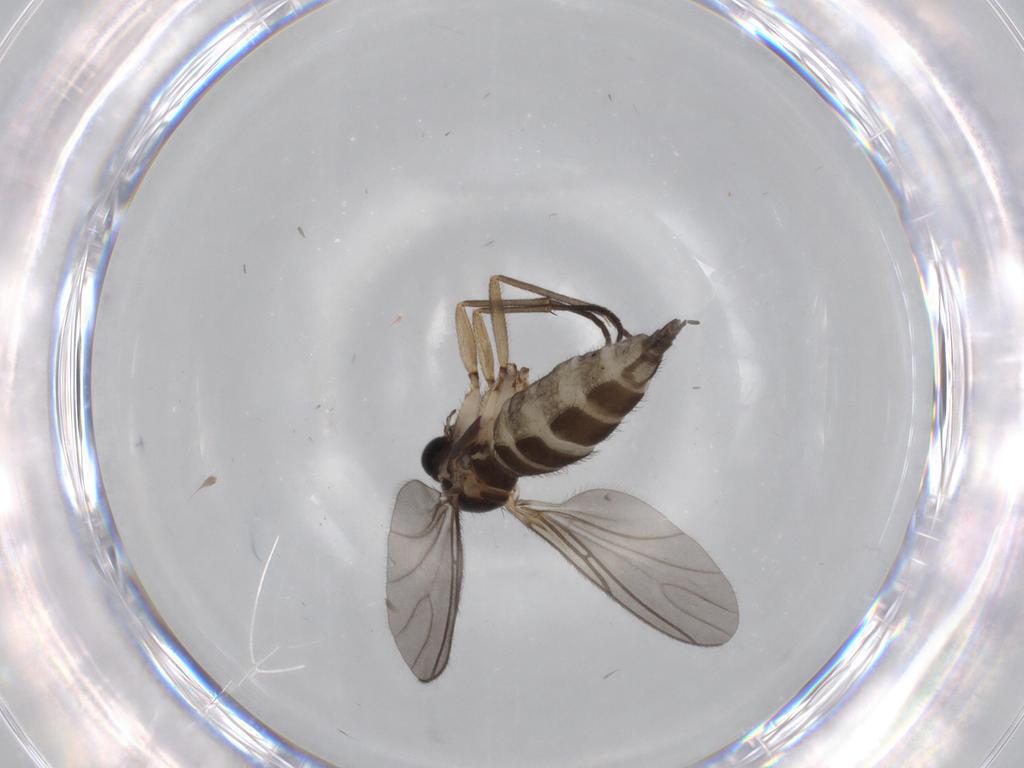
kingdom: Animalia
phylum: Arthropoda
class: Insecta
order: Diptera
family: Sciaridae
